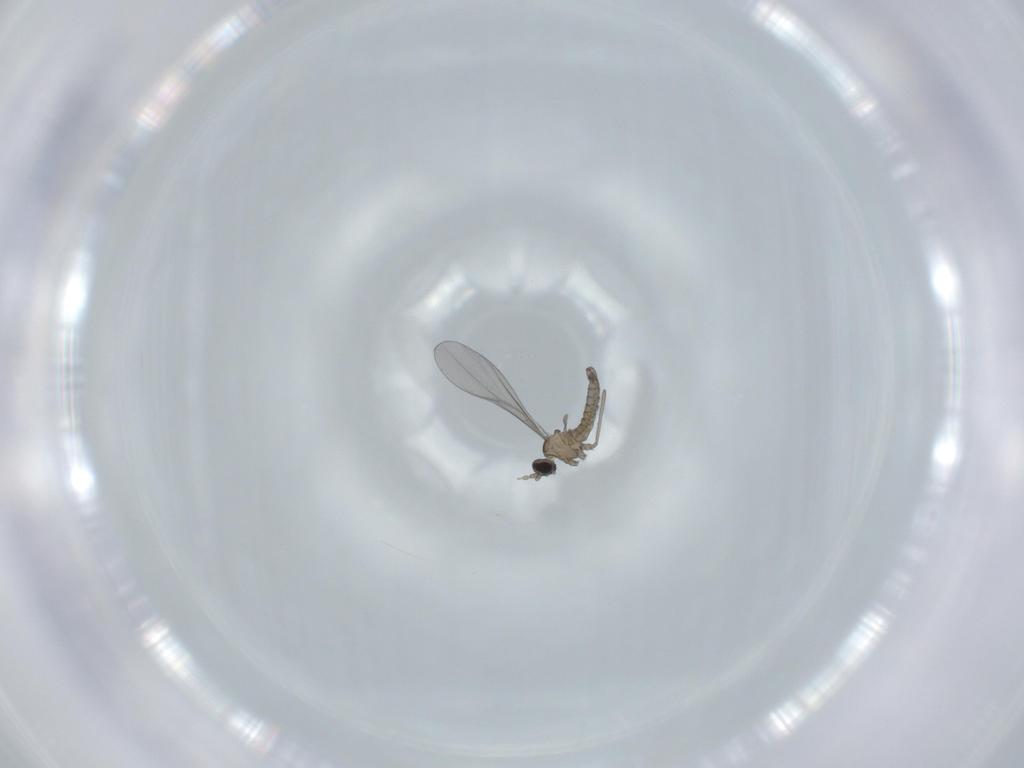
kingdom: Animalia
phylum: Arthropoda
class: Insecta
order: Diptera
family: Cecidomyiidae
